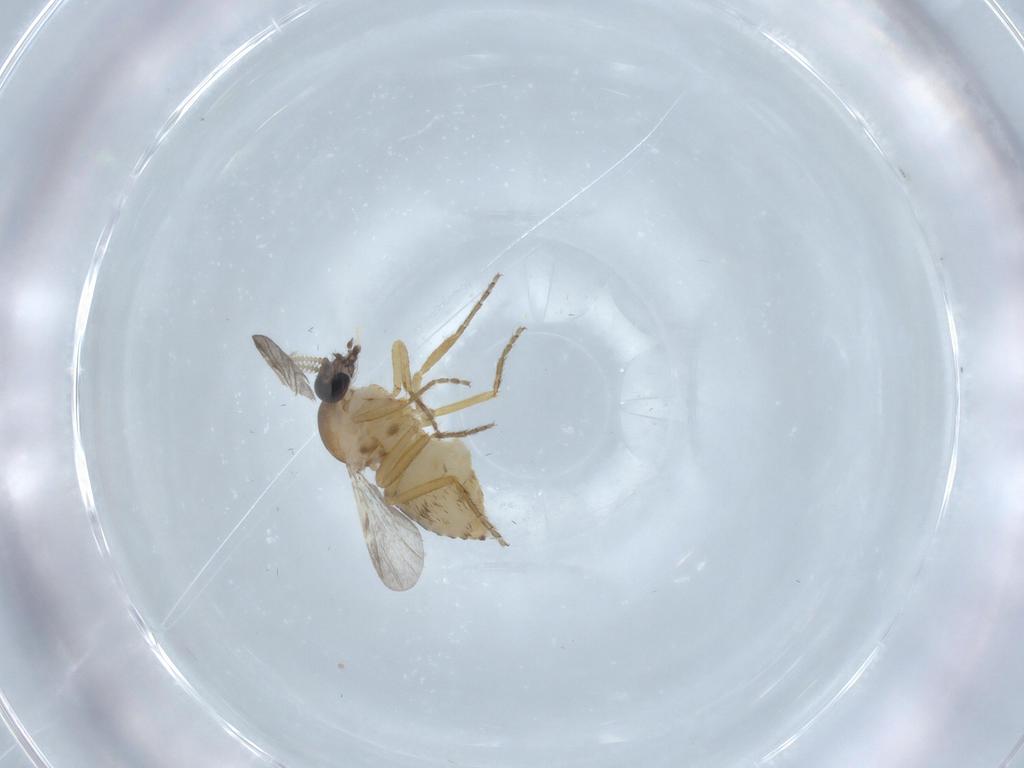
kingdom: Animalia
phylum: Arthropoda
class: Insecta
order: Diptera
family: Ceratopogonidae
